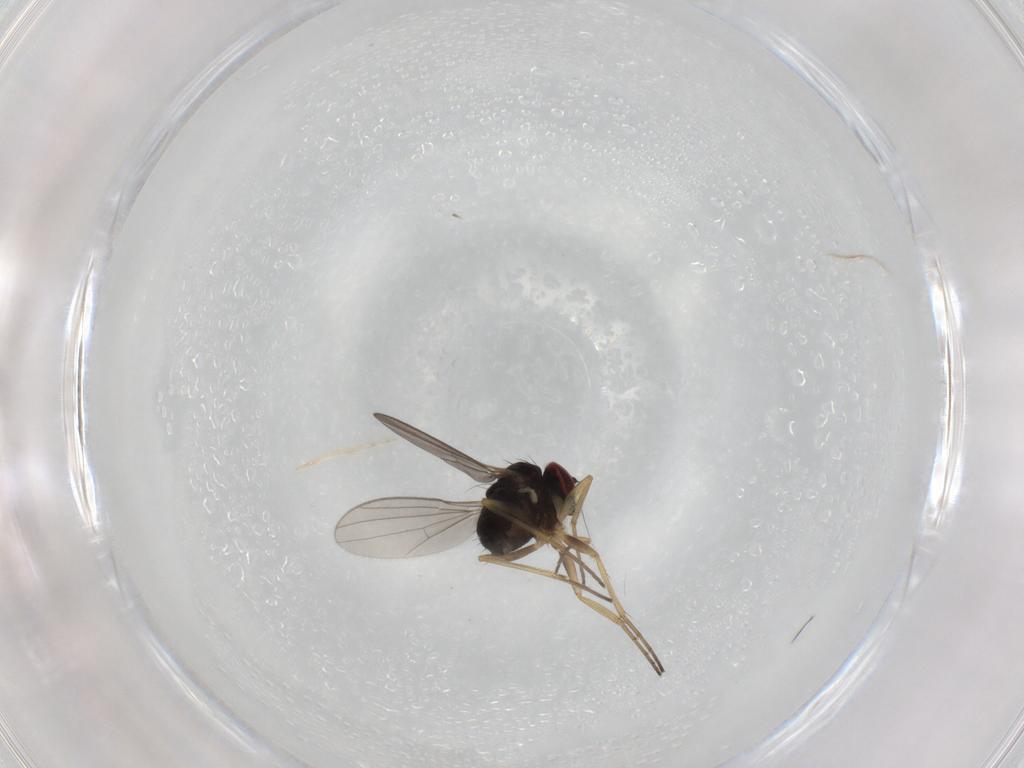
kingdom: Animalia
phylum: Arthropoda
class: Insecta
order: Diptera
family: Dolichopodidae
